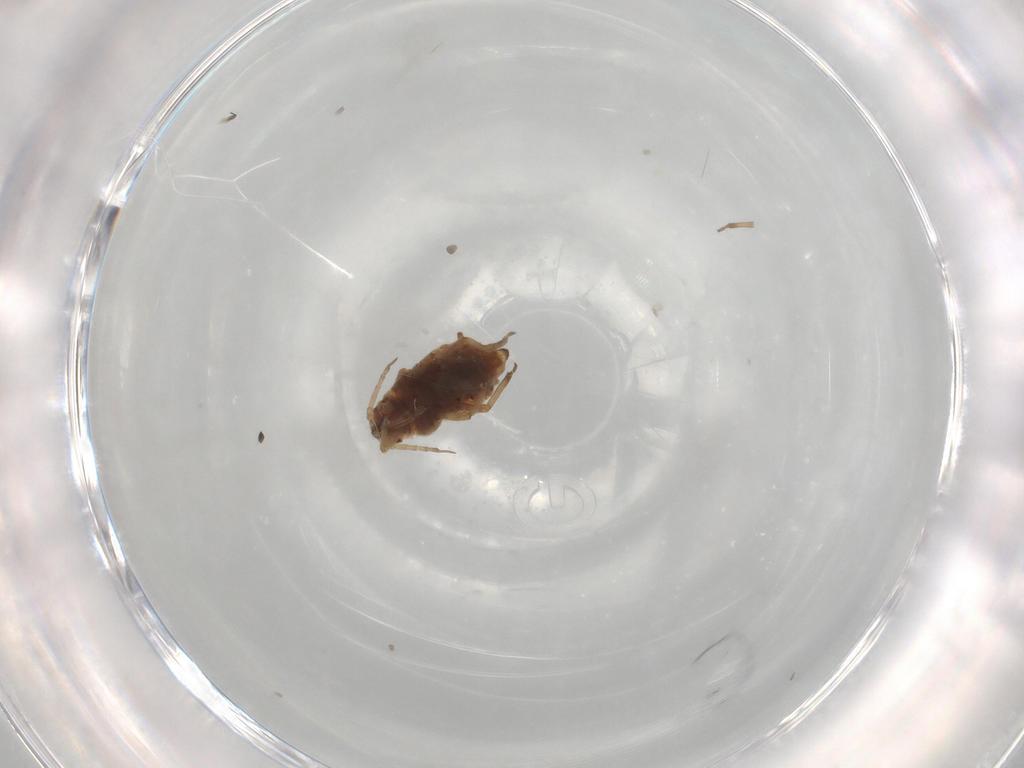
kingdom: Animalia
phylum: Arthropoda
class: Insecta
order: Hemiptera
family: Aphididae
